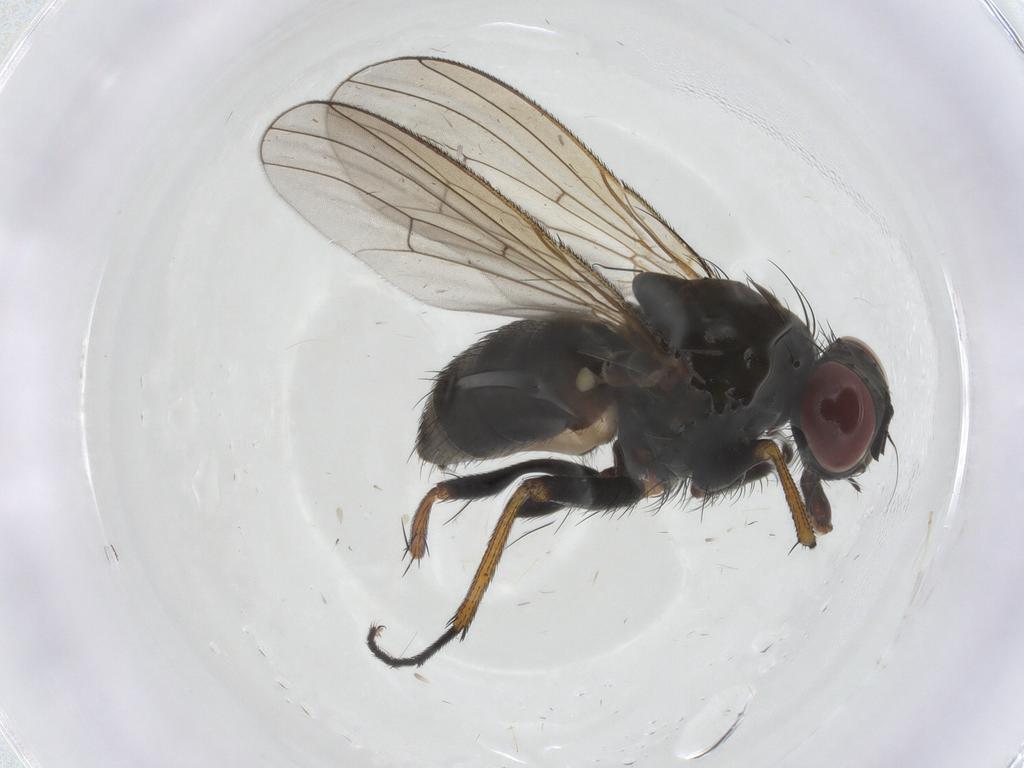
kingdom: Animalia
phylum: Arthropoda
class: Insecta
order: Diptera
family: Muscidae
